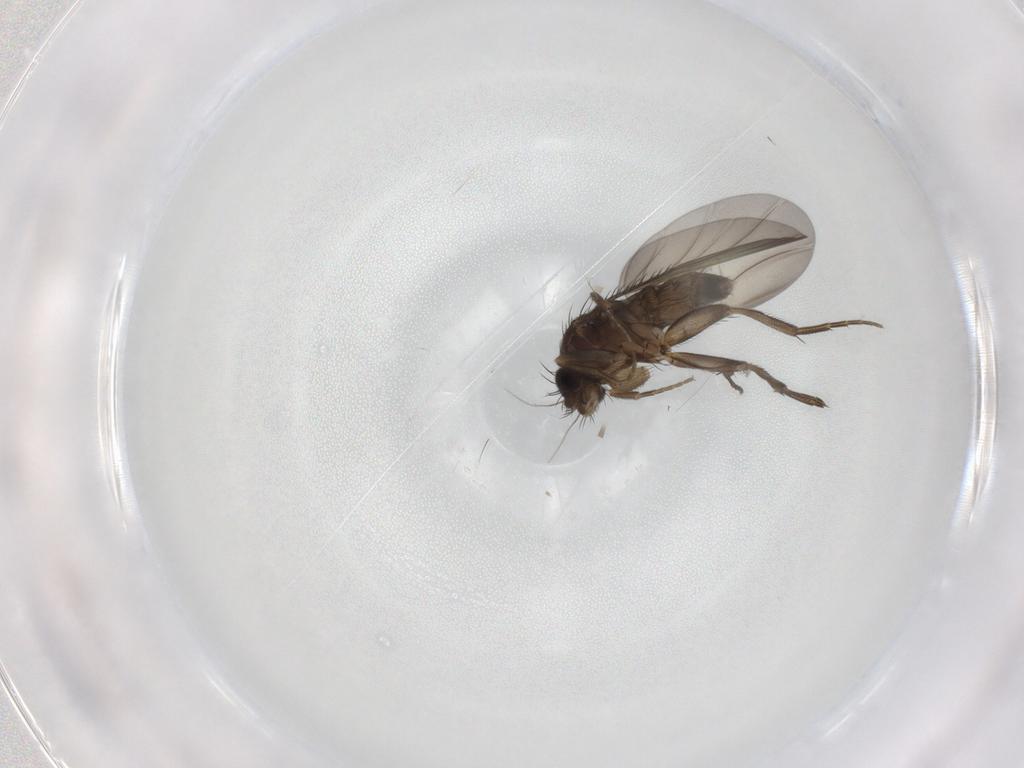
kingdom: Animalia
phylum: Arthropoda
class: Insecta
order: Diptera
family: Phoridae
